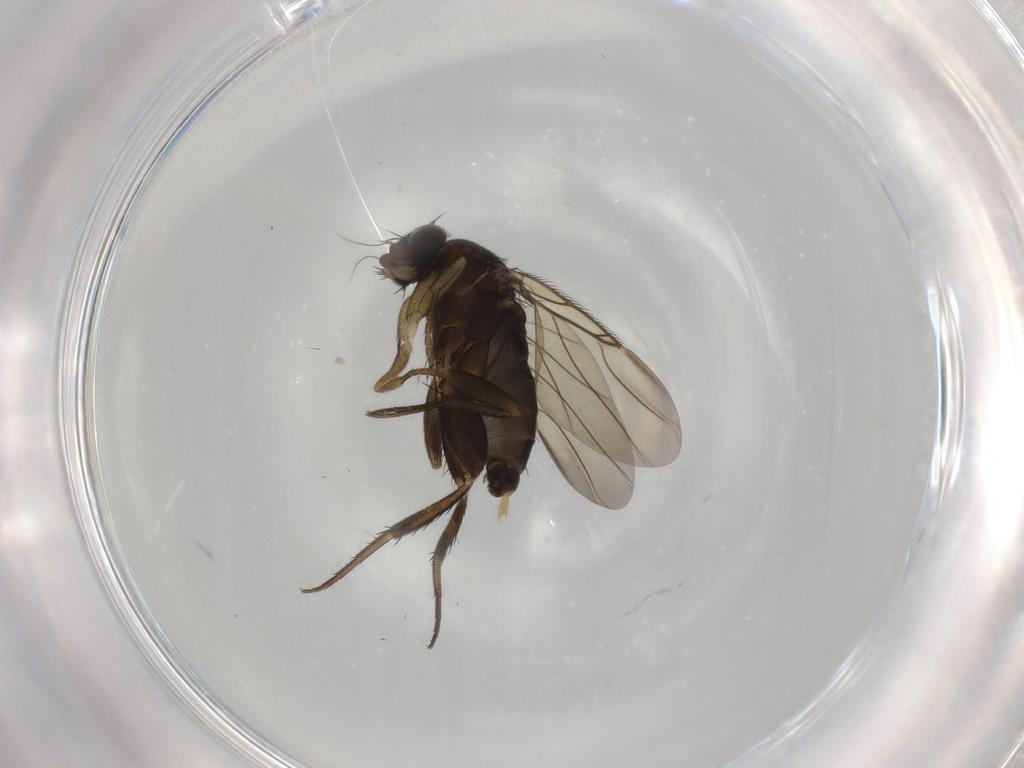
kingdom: Animalia
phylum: Arthropoda
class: Insecta
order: Diptera
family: Phoridae
